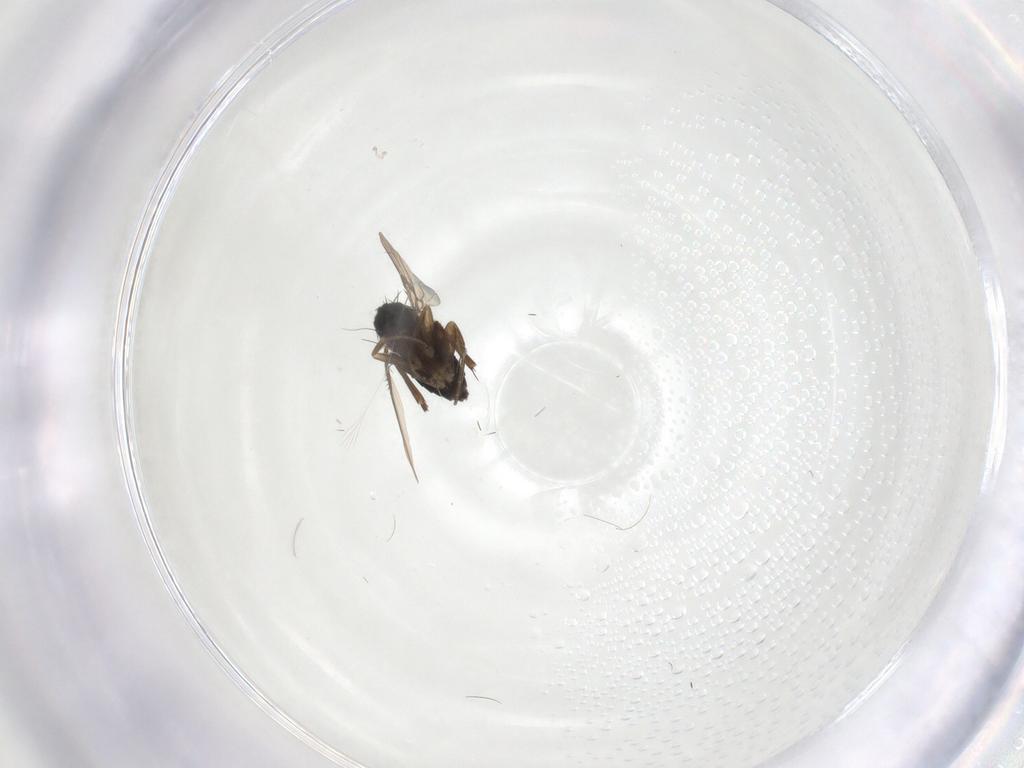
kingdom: Animalia
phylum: Arthropoda
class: Insecta
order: Diptera
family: Phoridae
